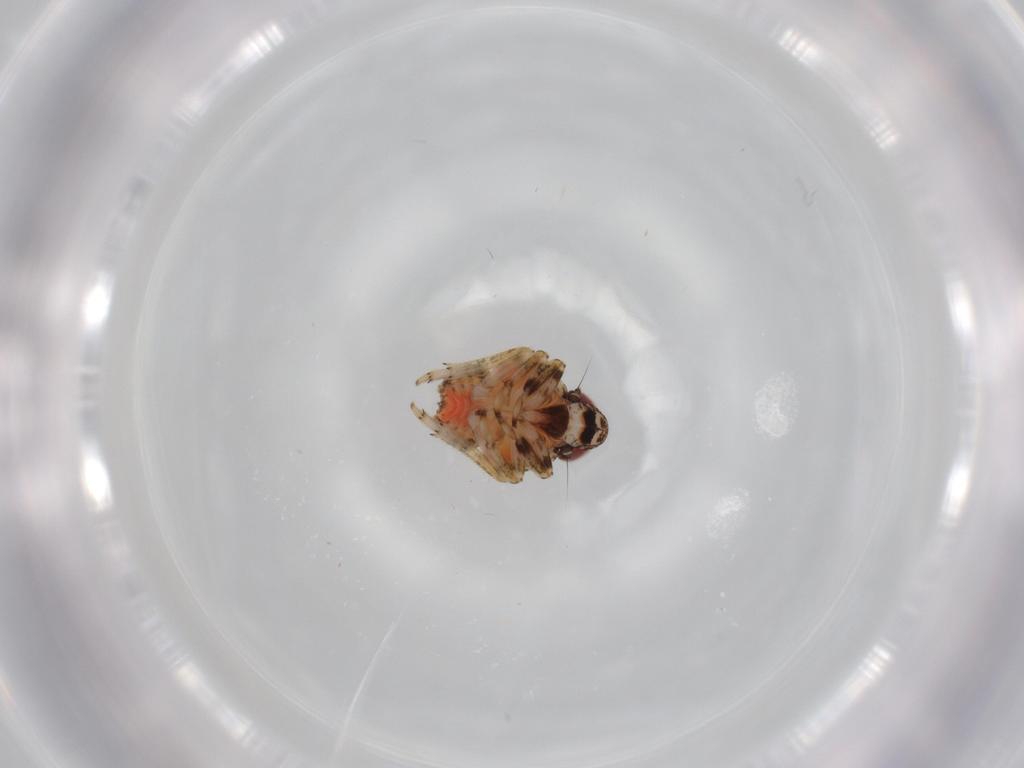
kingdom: Animalia
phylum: Arthropoda
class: Insecta
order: Hemiptera
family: Issidae
